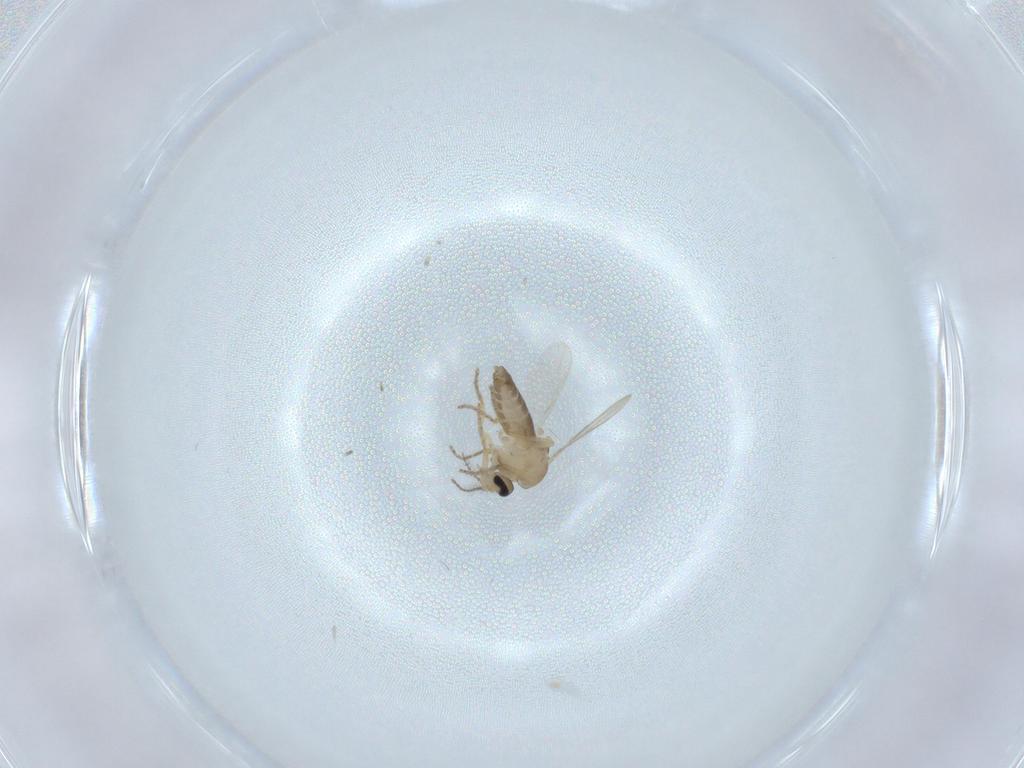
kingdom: Animalia
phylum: Arthropoda
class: Insecta
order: Diptera
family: Ceratopogonidae
